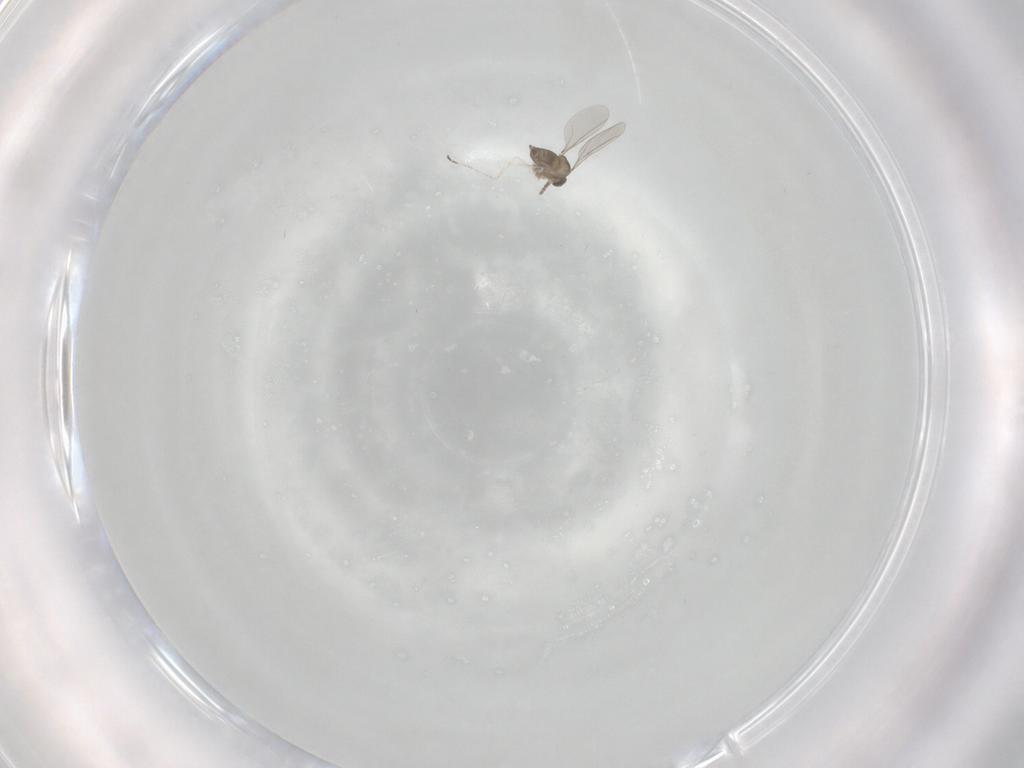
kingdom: Animalia
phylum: Arthropoda
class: Insecta
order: Diptera
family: Cecidomyiidae
